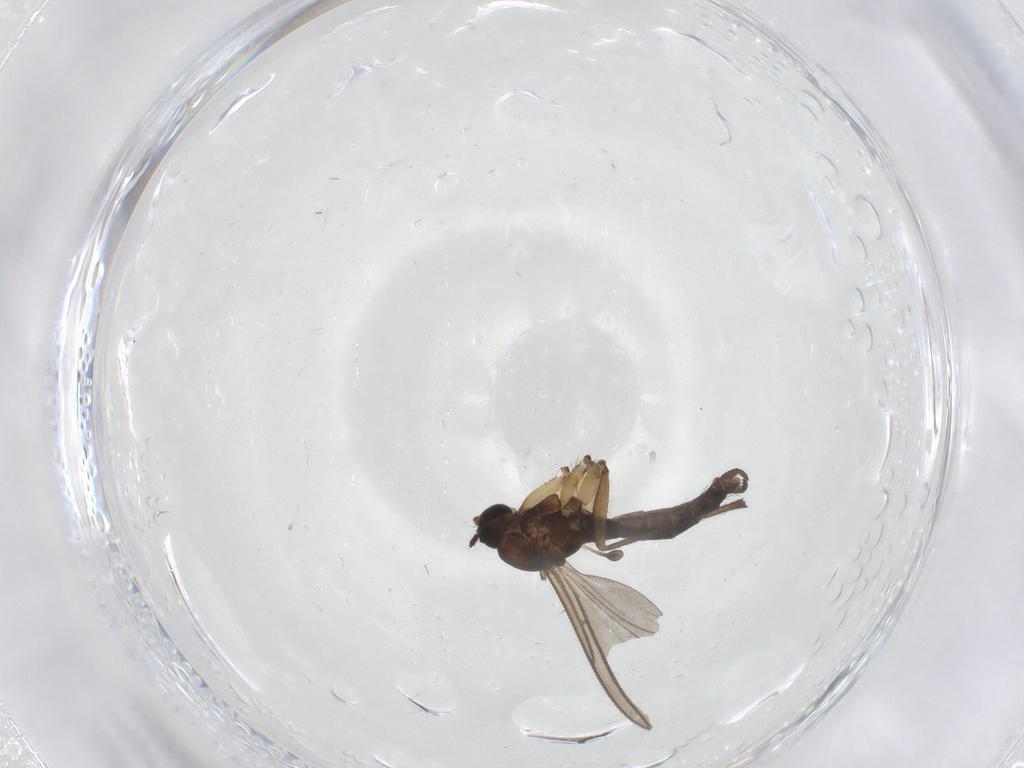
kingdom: Animalia
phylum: Arthropoda
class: Insecta
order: Diptera
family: Sciaridae
